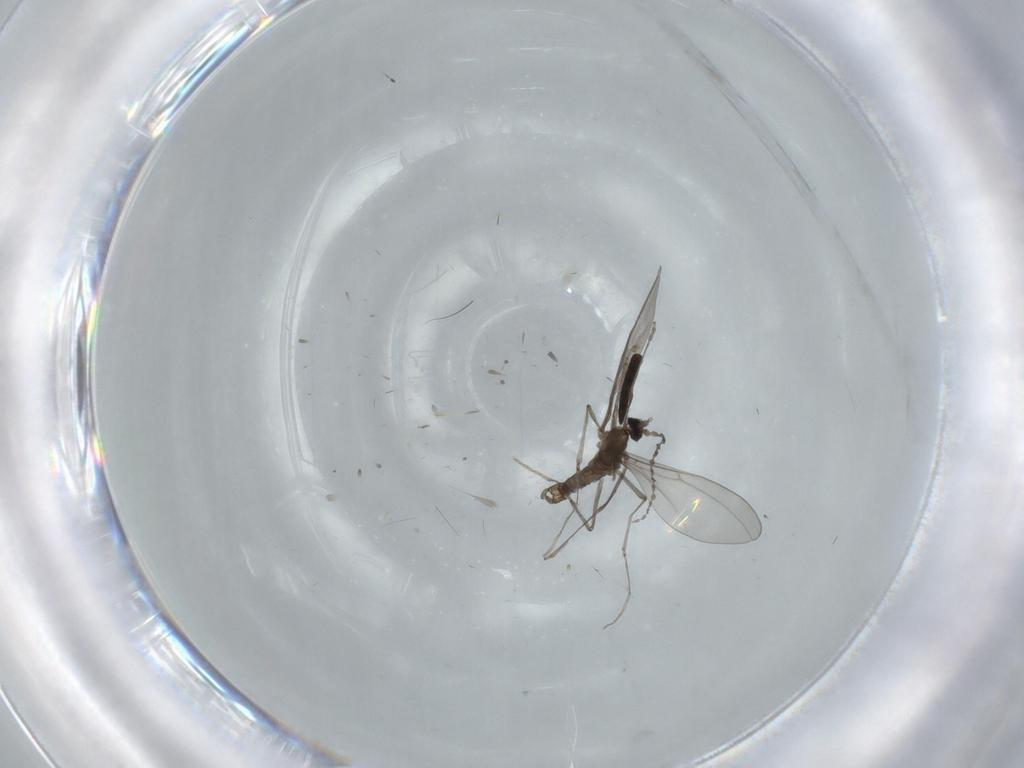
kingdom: Animalia
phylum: Arthropoda
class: Insecta
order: Diptera
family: Cecidomyiidae
